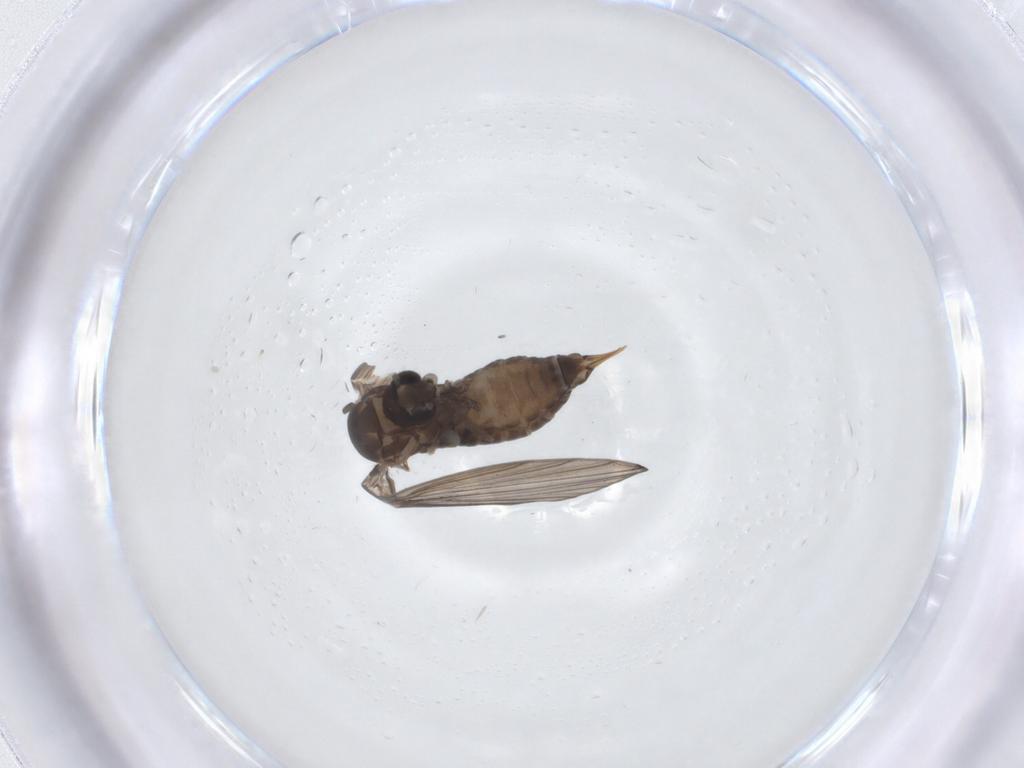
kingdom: Animalia
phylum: Arthropoda
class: Insecta
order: Diptera
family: Psychodidae
